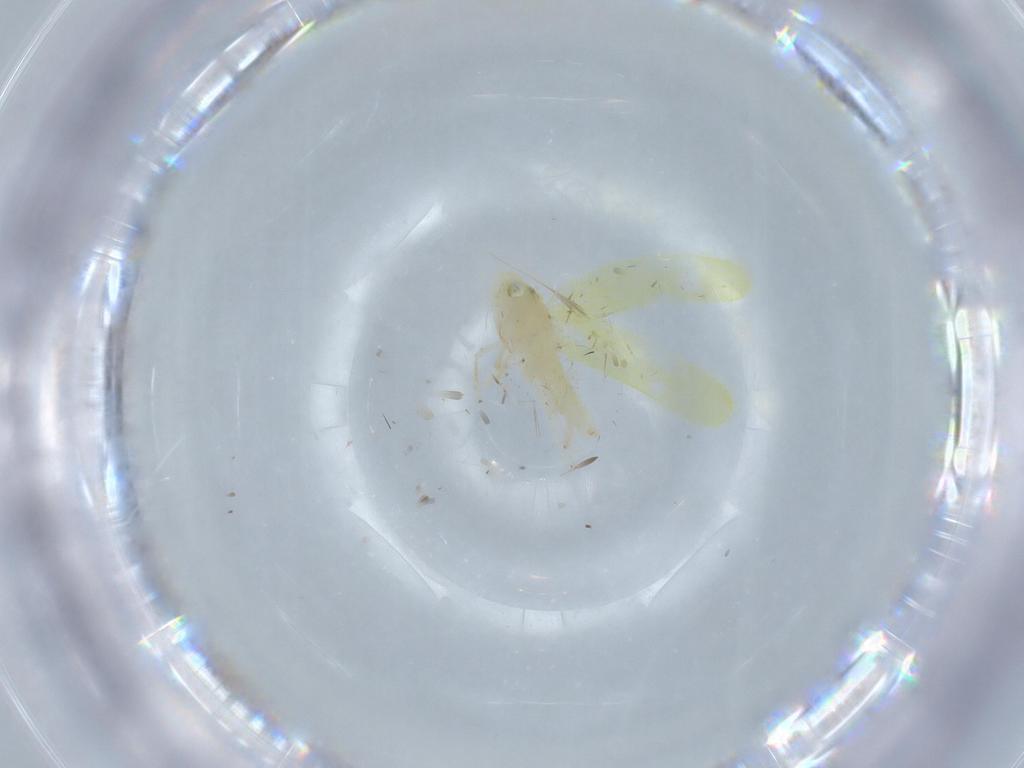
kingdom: Animalia
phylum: Arthropoda
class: Insecta
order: Hemiptera
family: Cicadellidae
